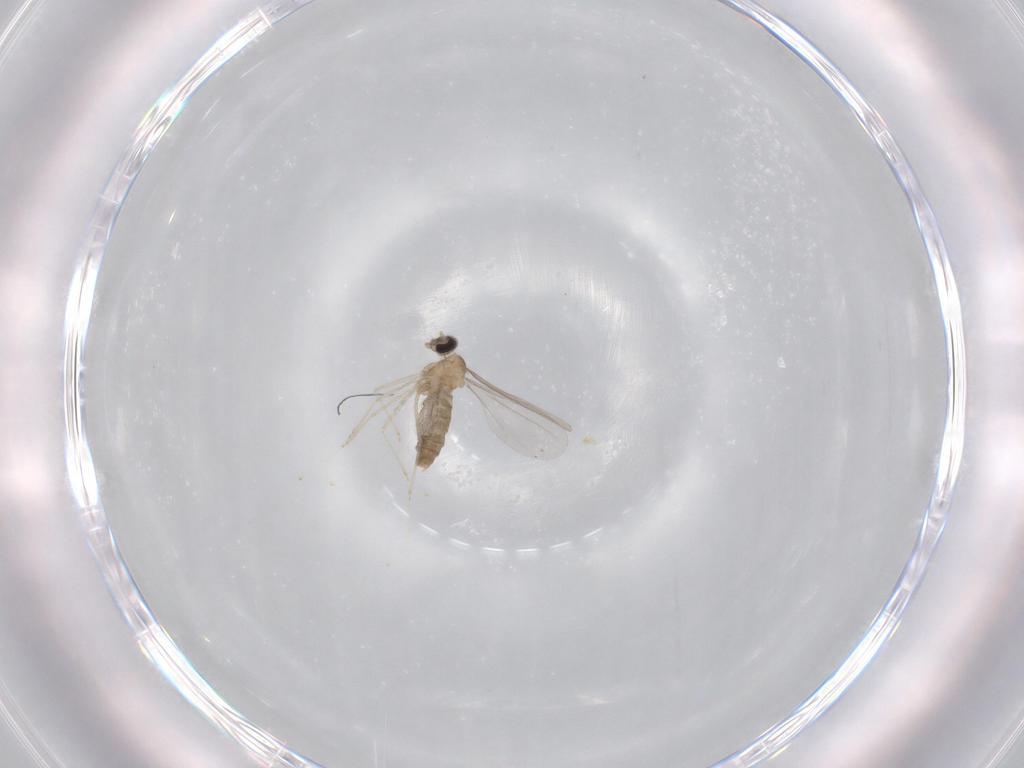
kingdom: Animalia
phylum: Arthropoda
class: Insecta
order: Diptera
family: Cecidomyiidae
